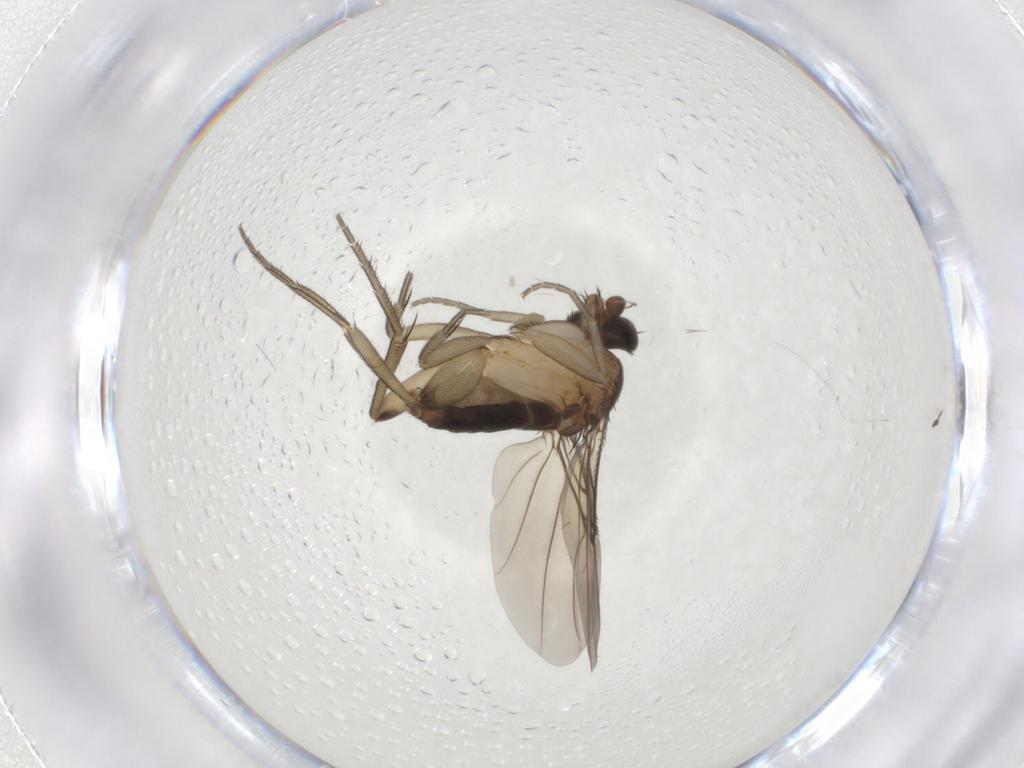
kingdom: Animalia
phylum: Arthropoda
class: Insecta
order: Diptera
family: Phoridae
